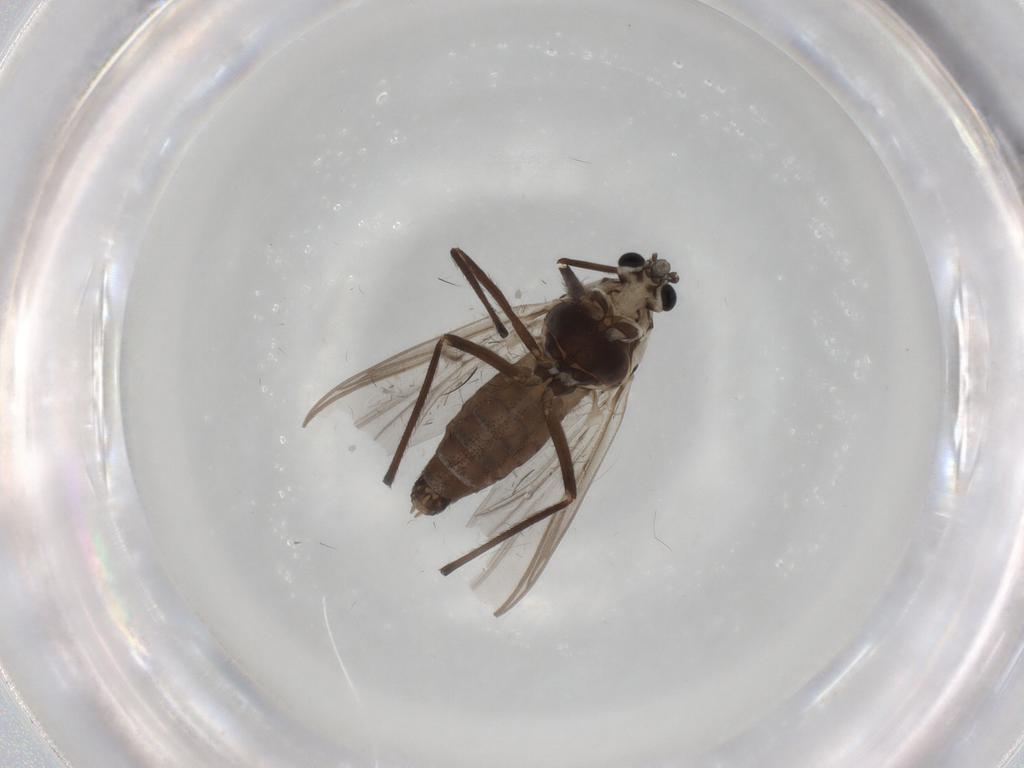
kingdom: Animalia
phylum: Arthropoda
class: Insecta
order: Diptera
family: Chironomidae
